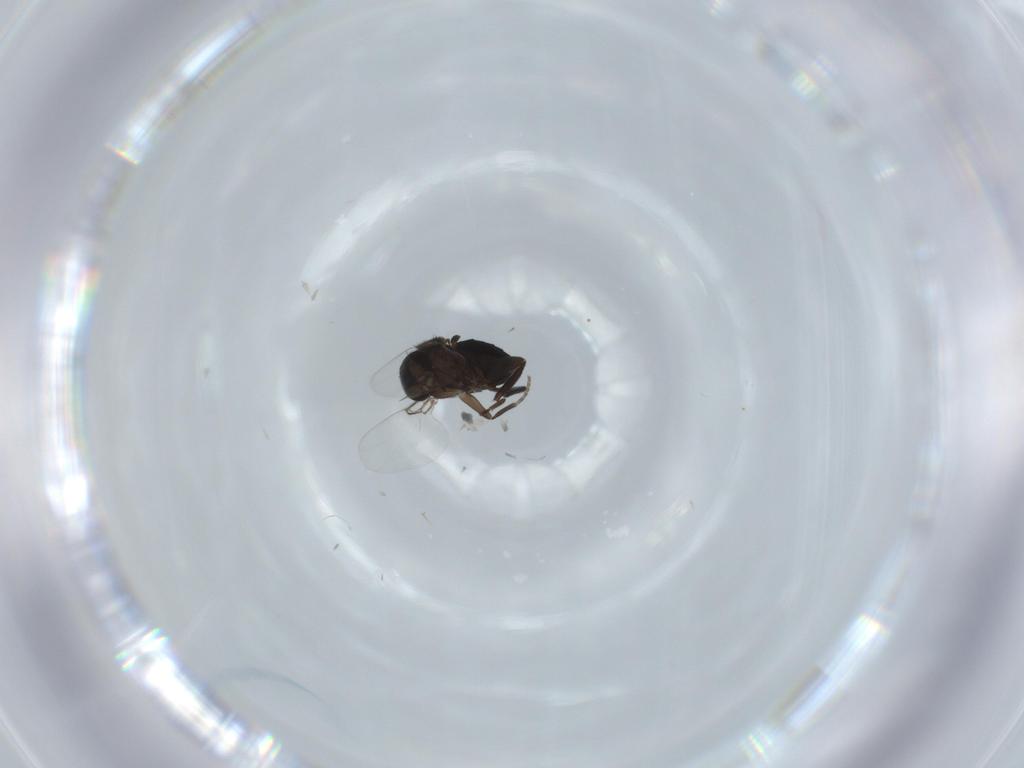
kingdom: Animalia
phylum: Arthropoda
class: Insecta
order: Diptera
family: Phoridae
